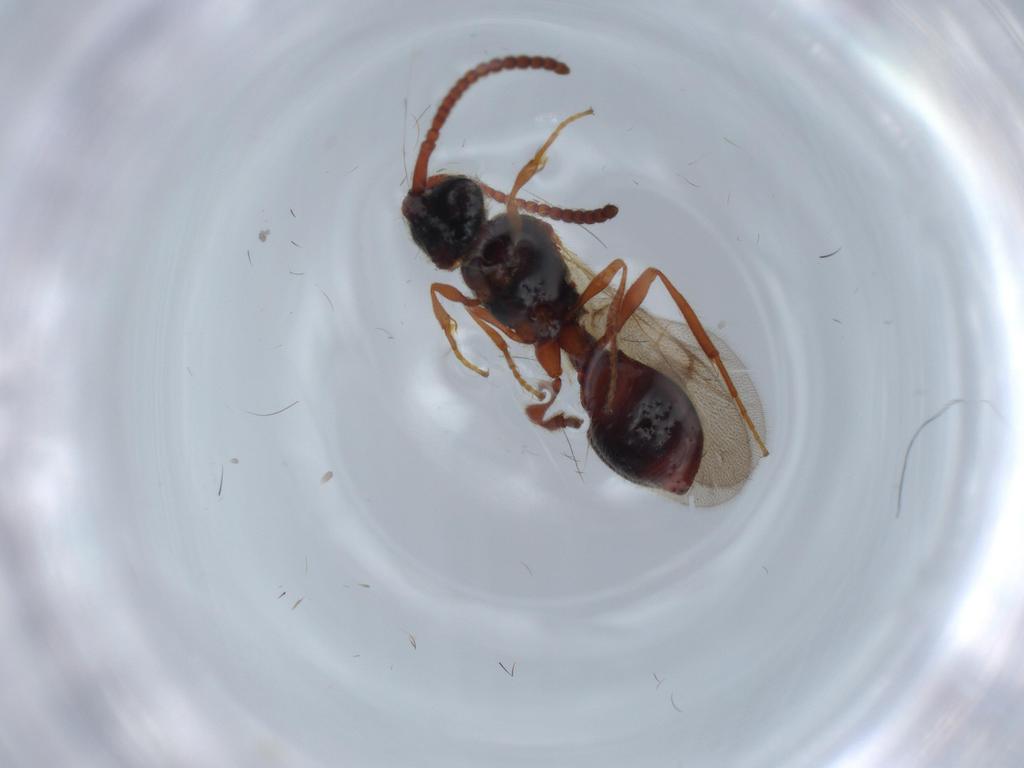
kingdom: Animalia
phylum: Arthropoda
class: Insecta
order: Hymenoptera
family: Diapriidae
